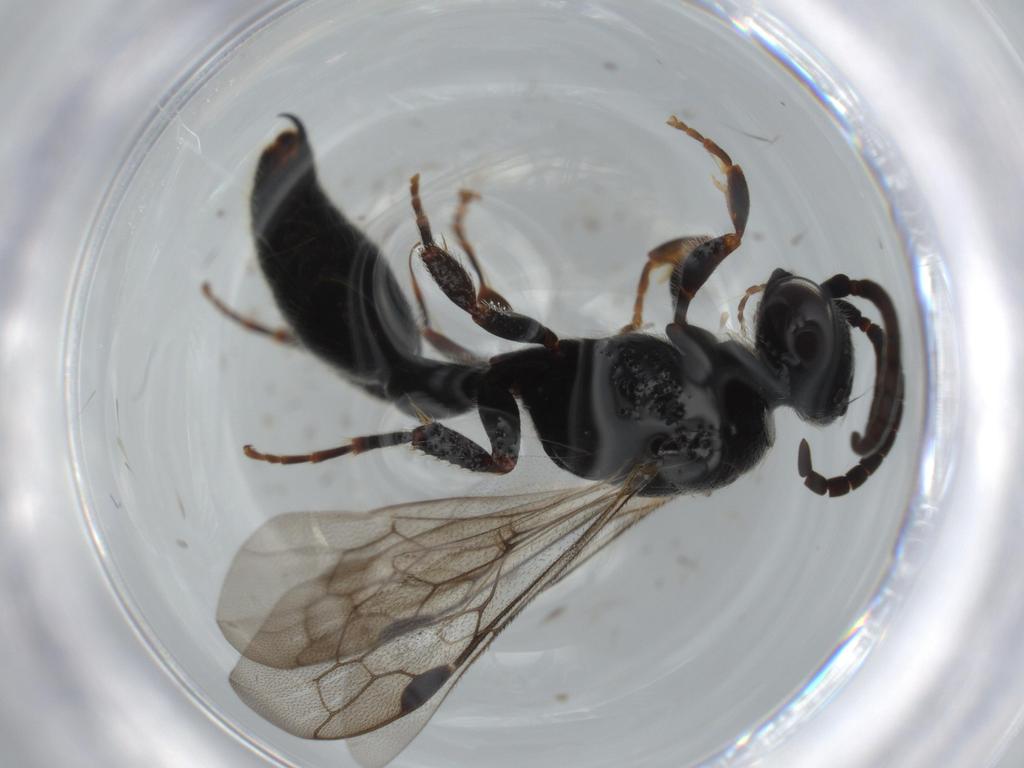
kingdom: Animalia
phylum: Arthropoda
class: Insecta
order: Hymenoptera
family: Tiphiidae
